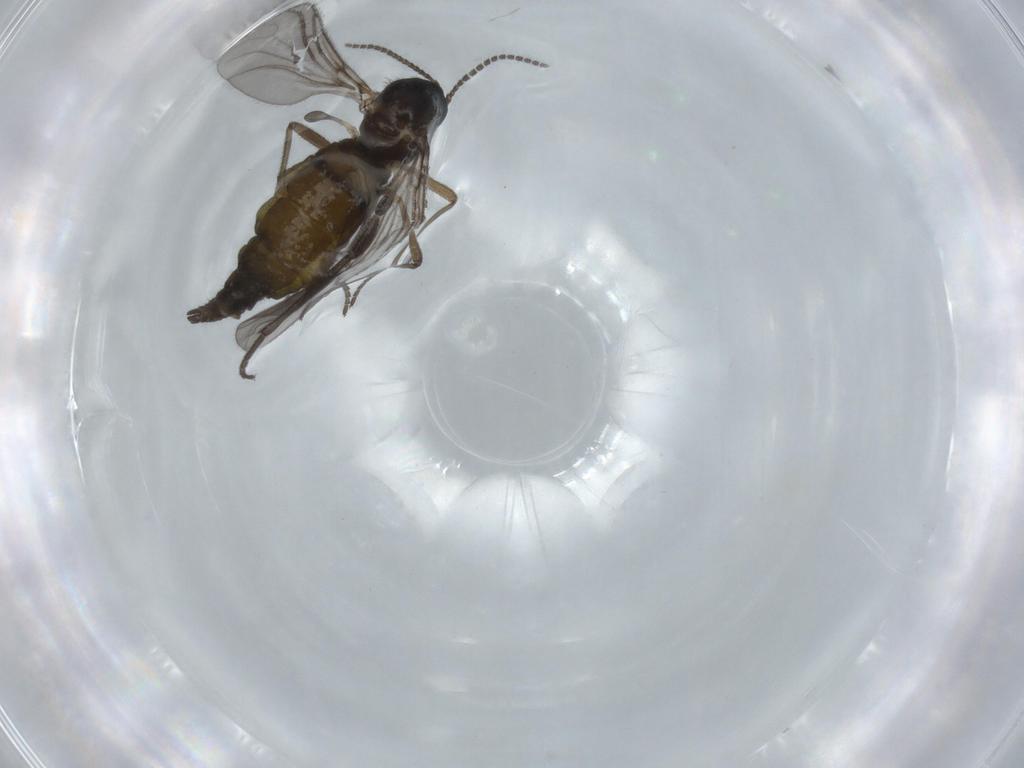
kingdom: Animalia
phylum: Arthropoda
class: Insecta
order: Diptera
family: Sciaridae
